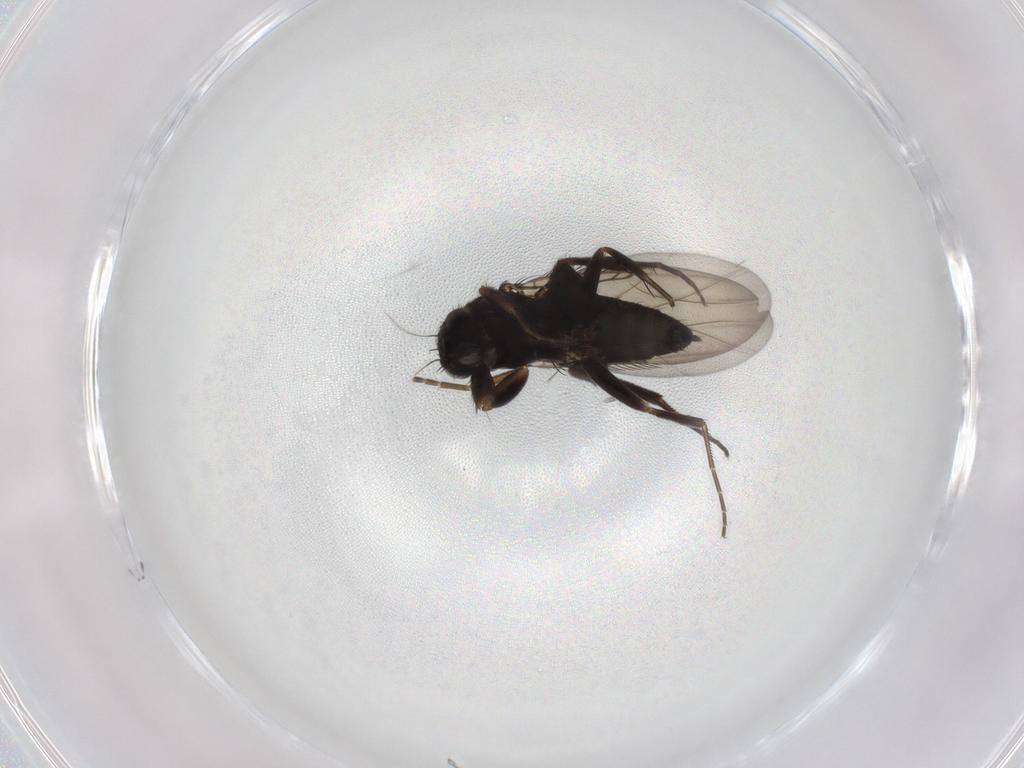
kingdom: Animalia
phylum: Arthropoda
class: Insecta
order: Diptera
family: Phoridae
